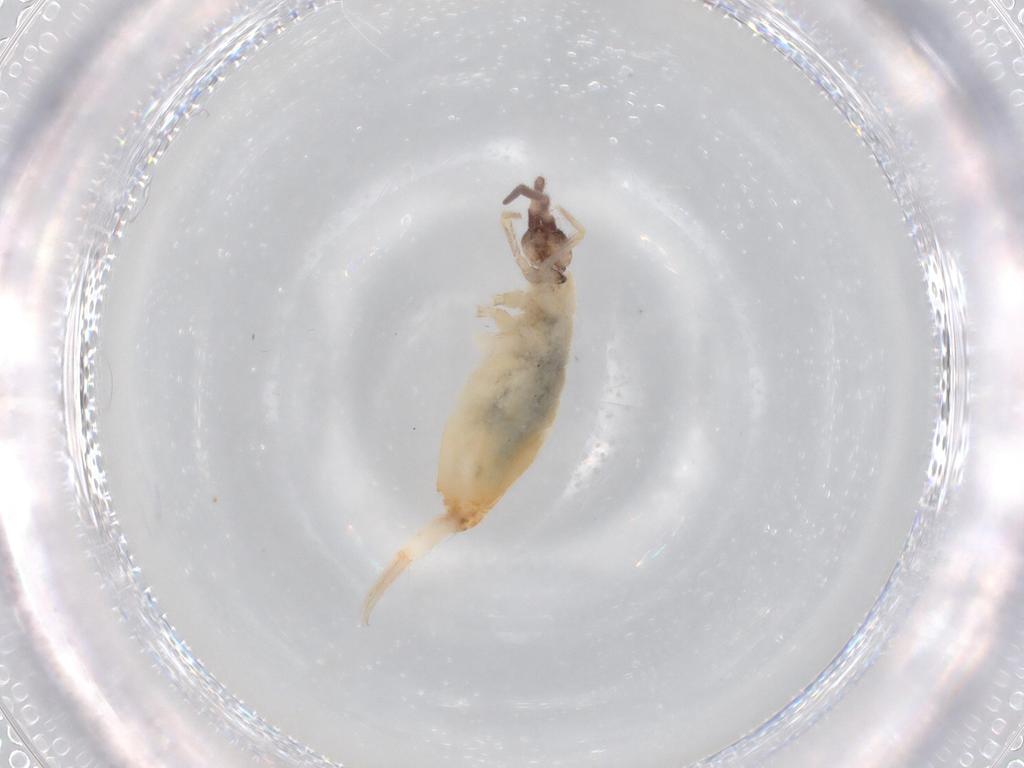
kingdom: Animalia
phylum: Arthropoda
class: Collembola
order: Entomobryomorpha
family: Entomobryidae
